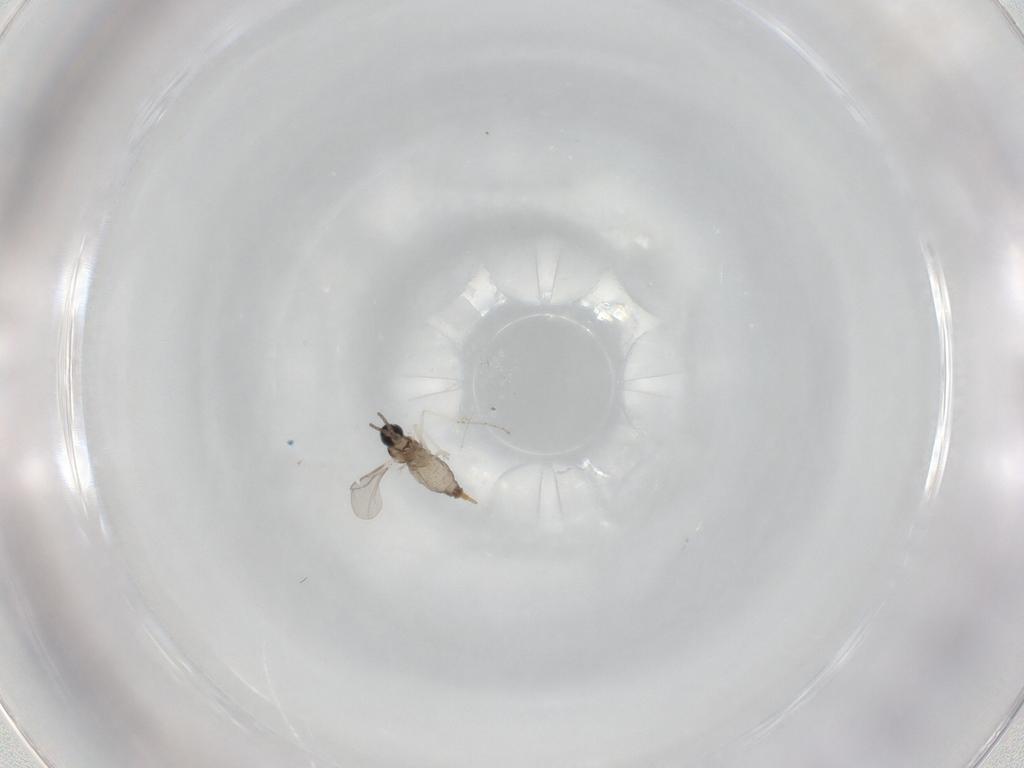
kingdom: Animalia
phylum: Arthropoda
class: Insecta
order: Diptera
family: Cecidomyiidae
